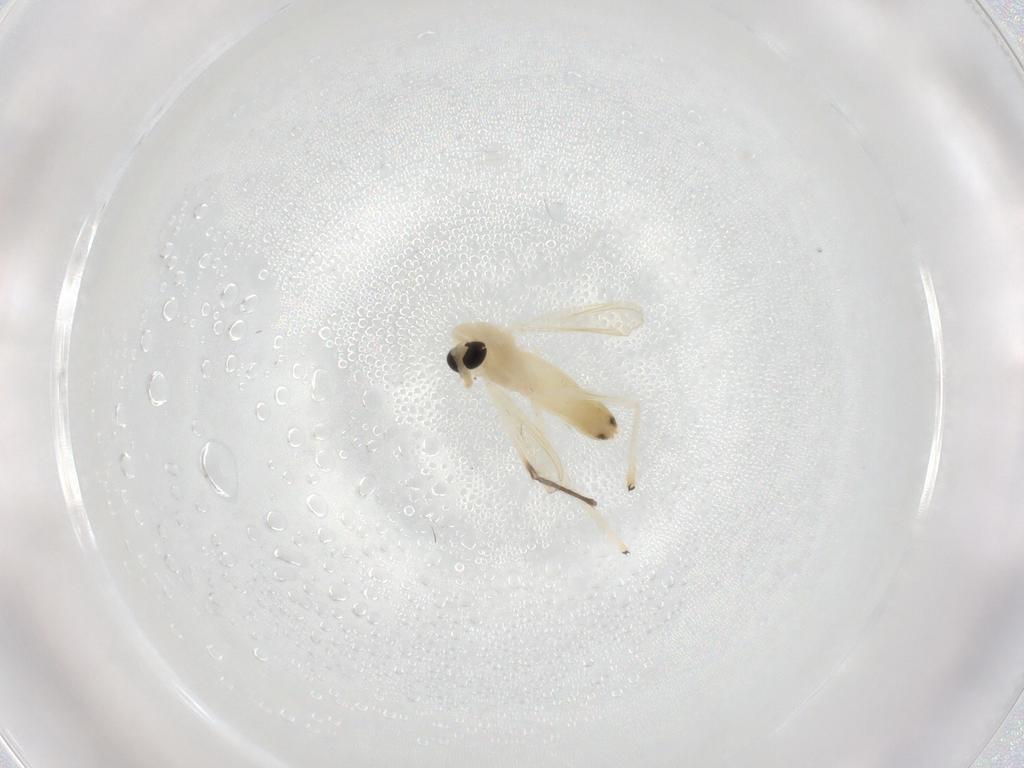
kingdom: Animalia
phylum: Arthropoda
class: Insecta
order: Diptera
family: Chironomidae
